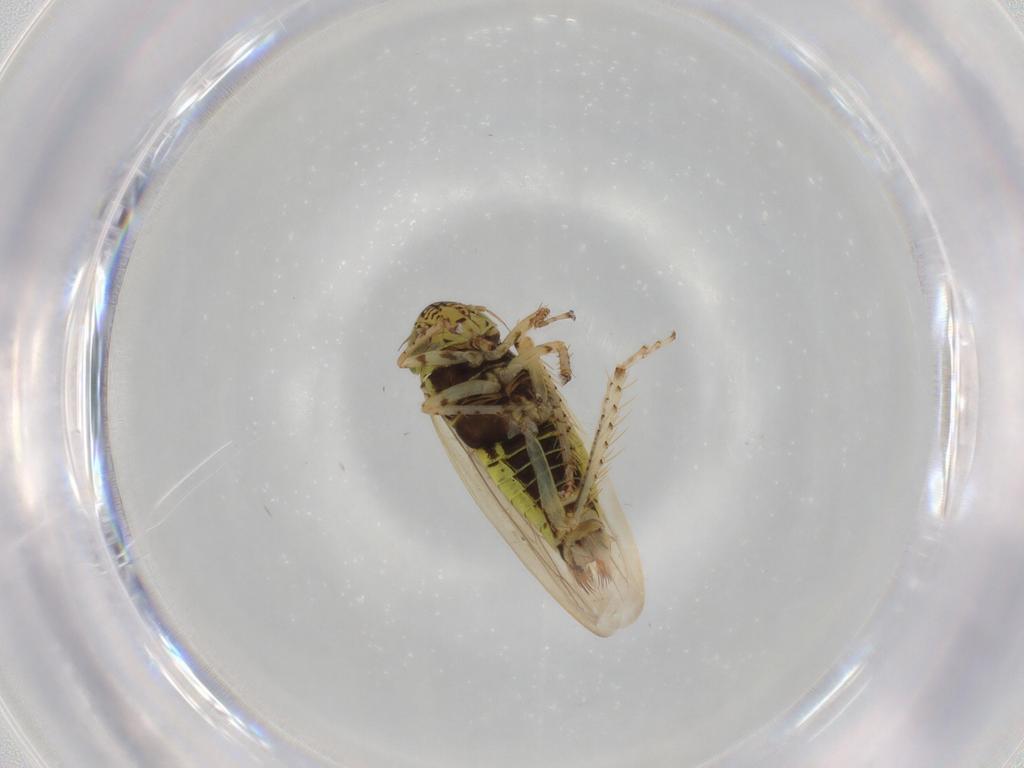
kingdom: Animalia
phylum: Arthropoda
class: Insecta
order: Hemiptera
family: Cicadellidae
